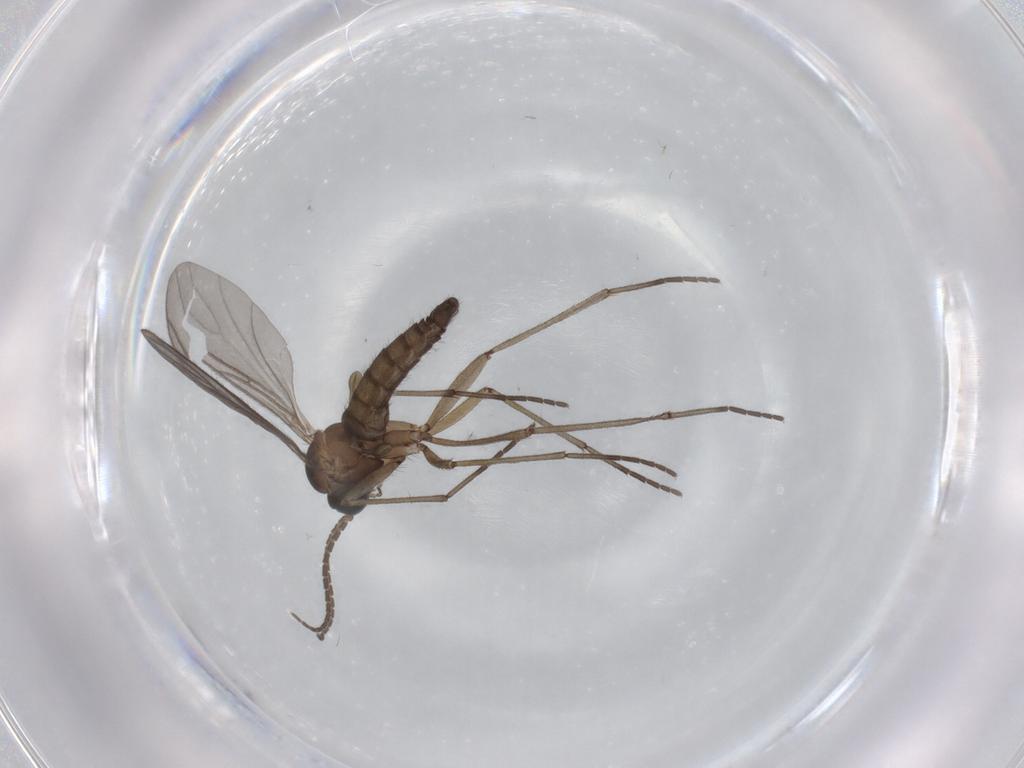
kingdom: Animalia
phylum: Arthropoda
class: Insecta
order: Diptera
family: Sciaridae
